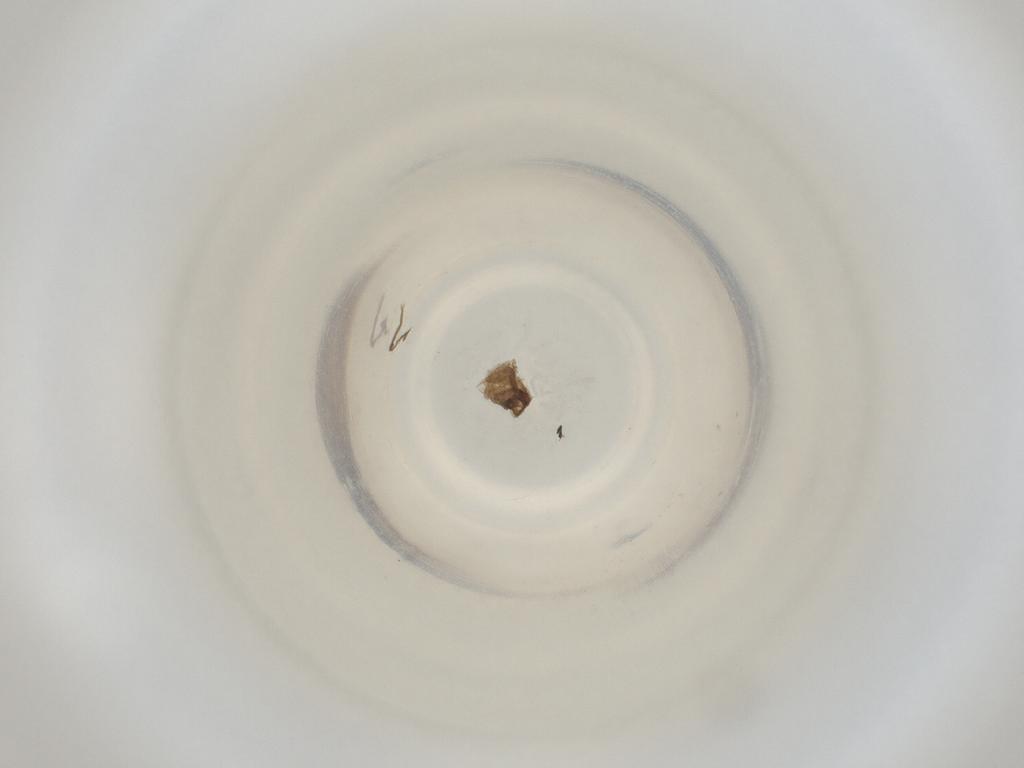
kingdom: Animalia
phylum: Arthropoda
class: Insecta
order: Diptera
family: Cecidomyiidae
